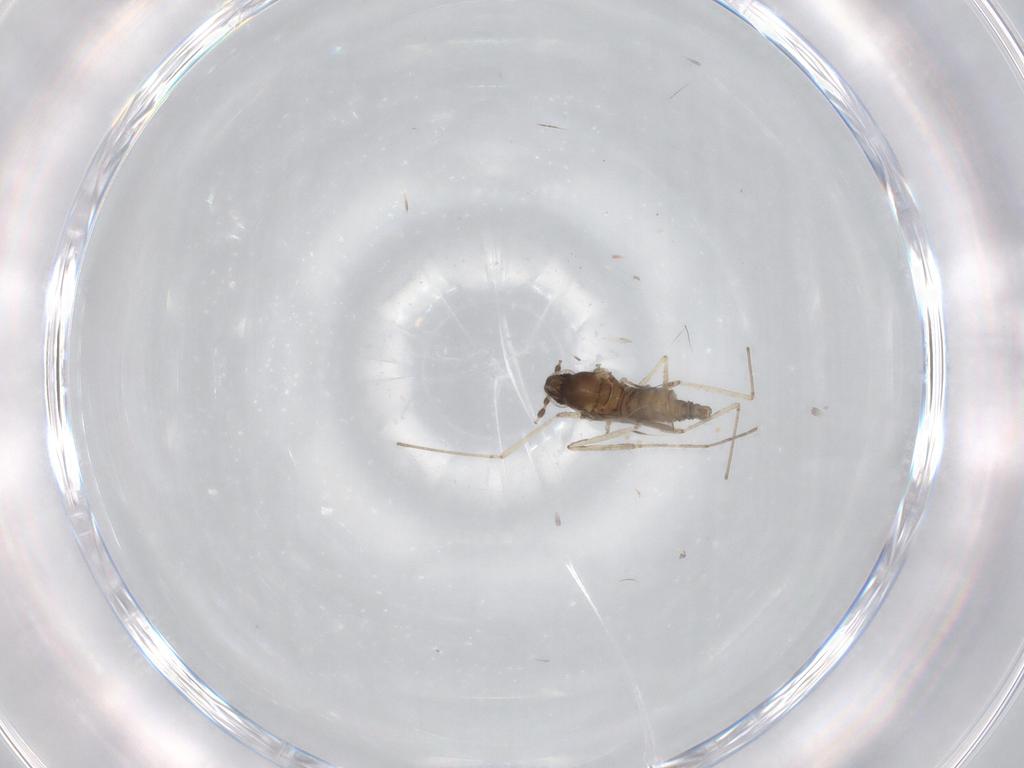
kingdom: Animalia
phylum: Arthropoda
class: Insecta
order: Diptera
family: Cecidomyiidae
